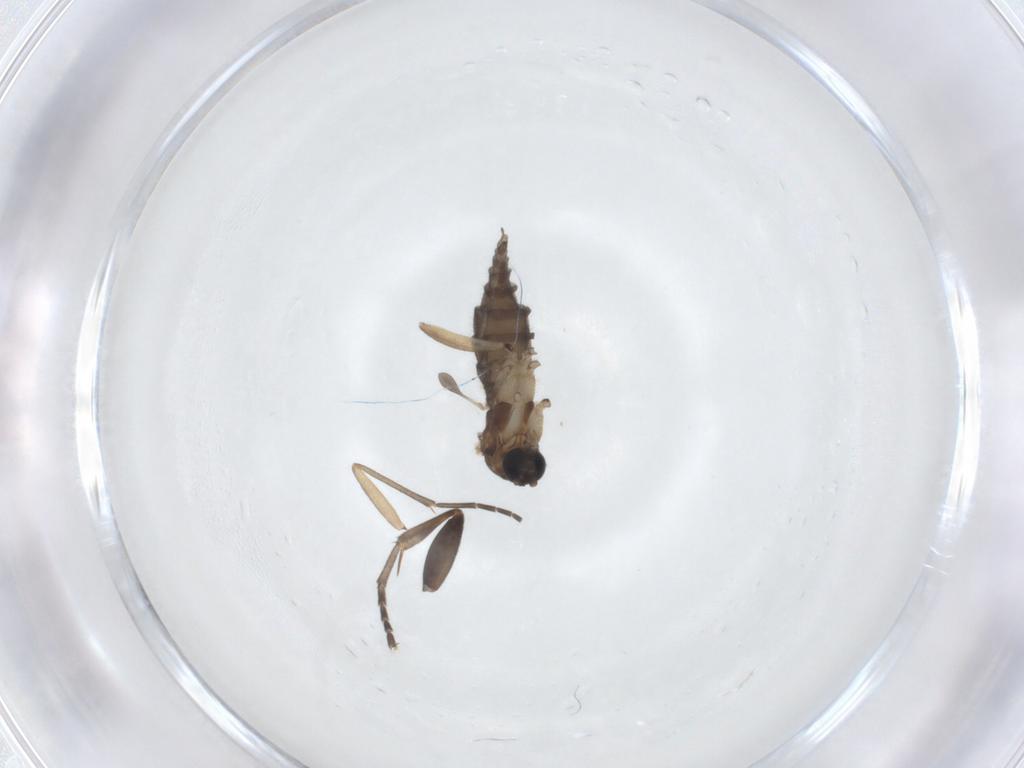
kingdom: Animalia
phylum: Arthropoda
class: Insecta
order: Diptera
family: Sciaridae
